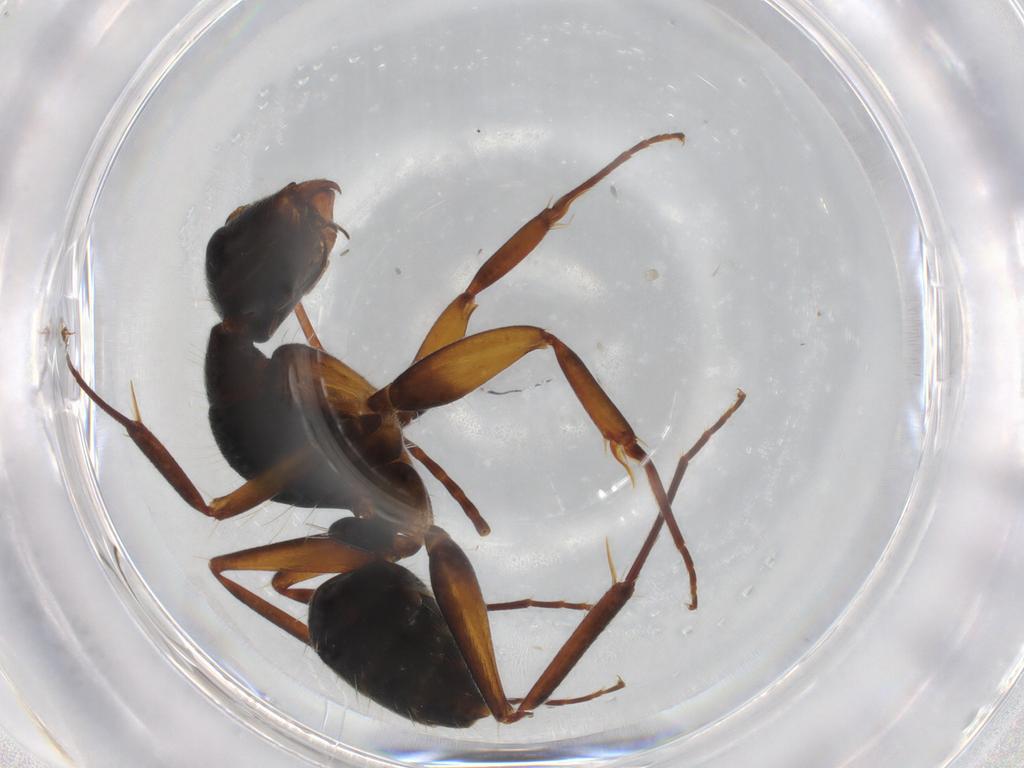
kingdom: Animalia
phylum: Arthropoda
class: Insecta
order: Hymenoptera
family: Formicidae
